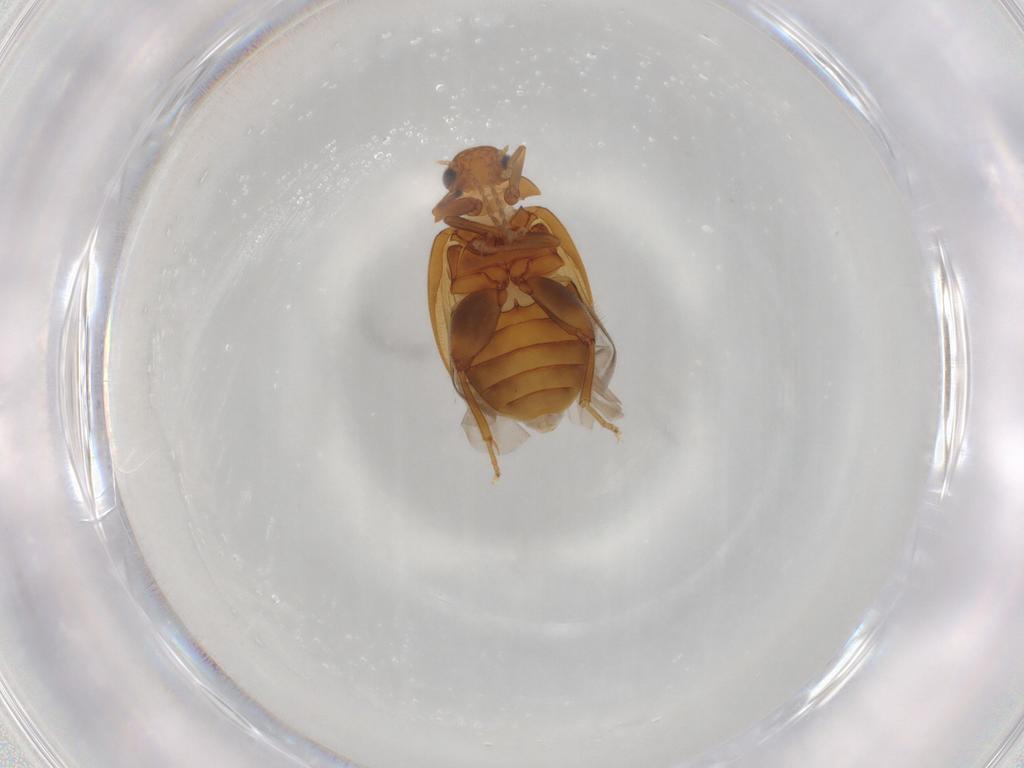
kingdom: Animalia
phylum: Arthropoda
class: Insecta
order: Coleoptera
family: Scirtidae
